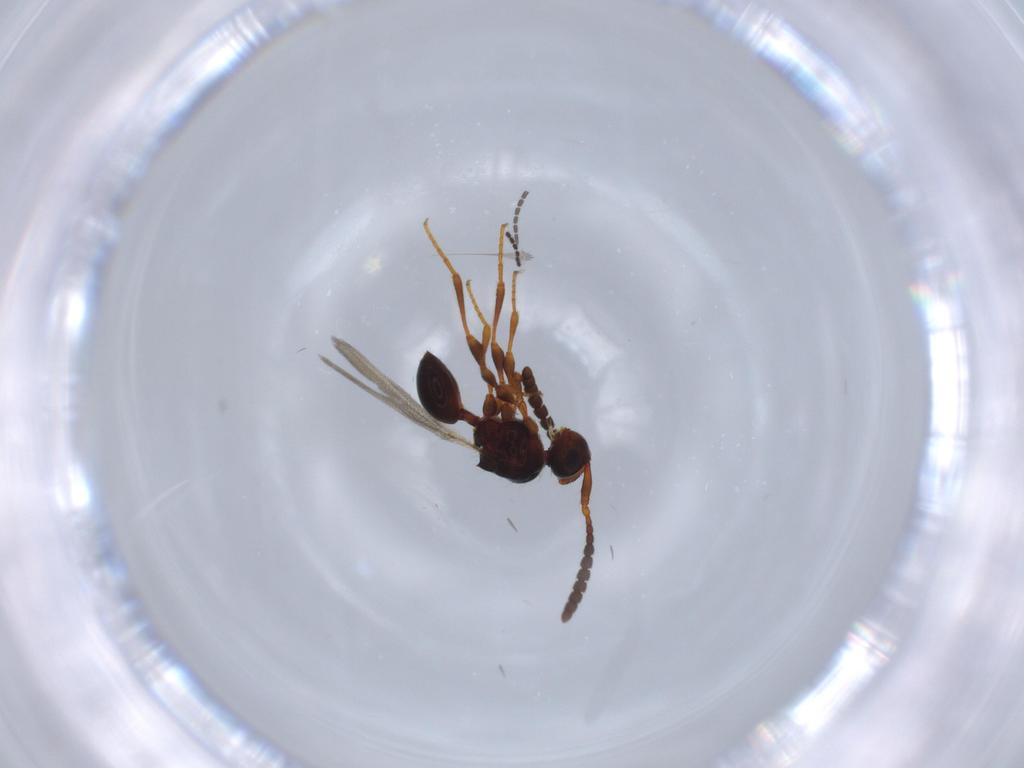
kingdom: Animalia
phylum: Arthropoda
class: Insecta
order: Hymenoptera
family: Diapriidae
